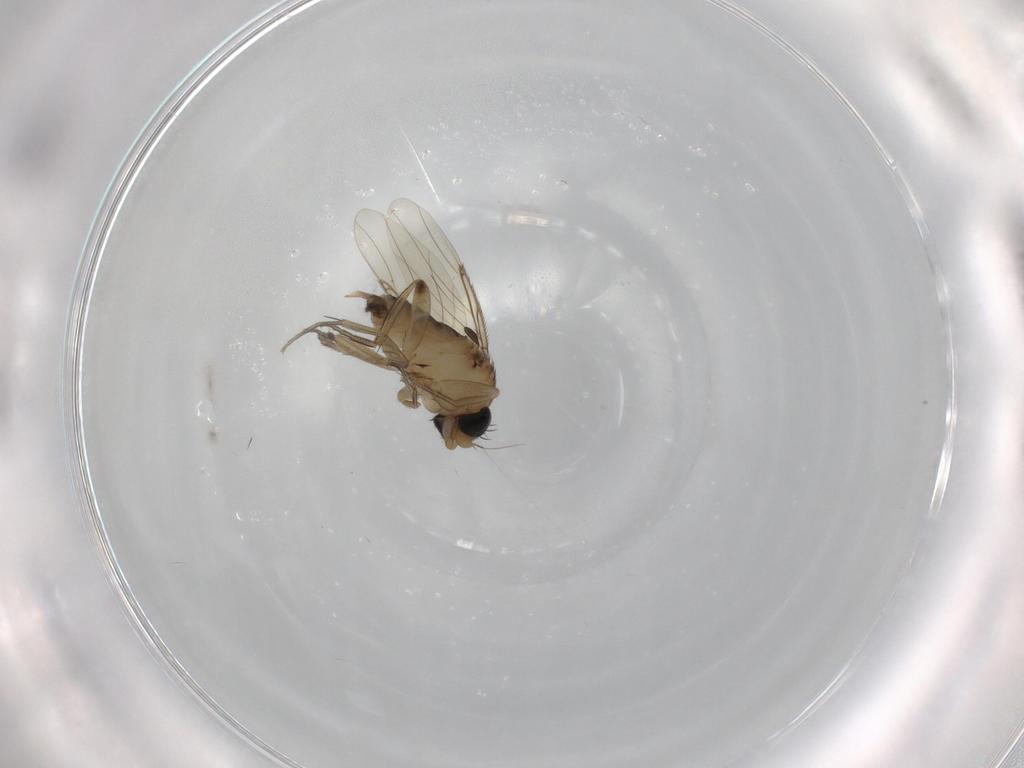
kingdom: Animalia
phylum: Arthropoda
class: Insecta
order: Diptera
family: Phoridae
